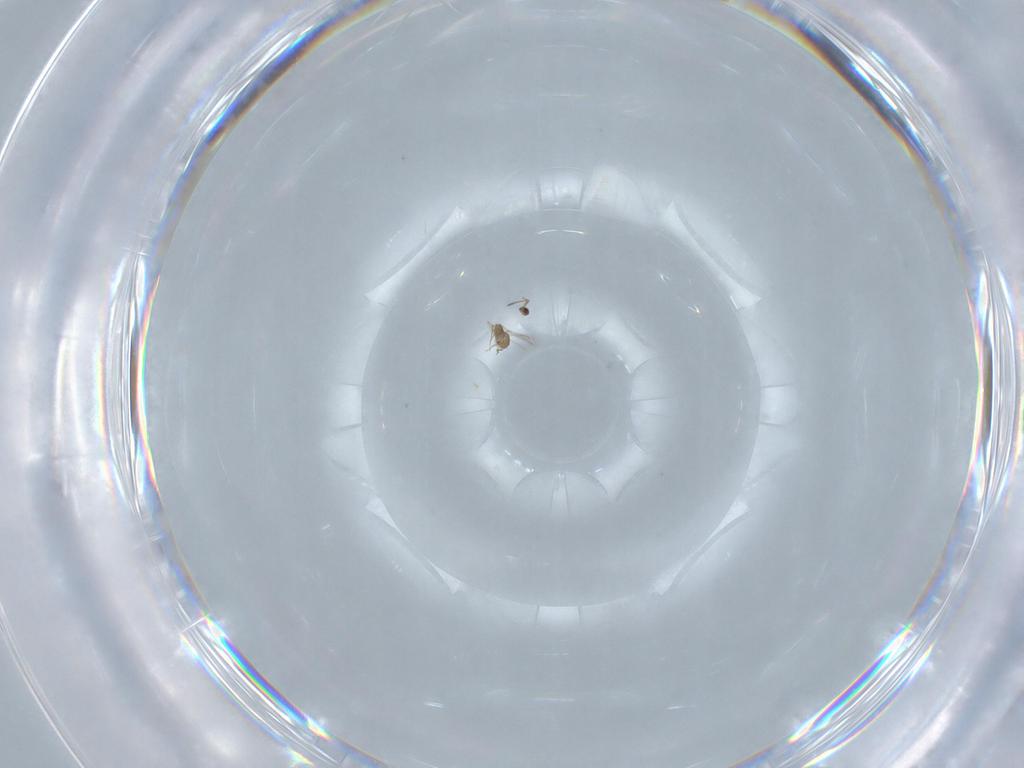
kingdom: Animalia
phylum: Arthropoda
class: Insecta
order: Hymenoptera
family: Mymaridae
